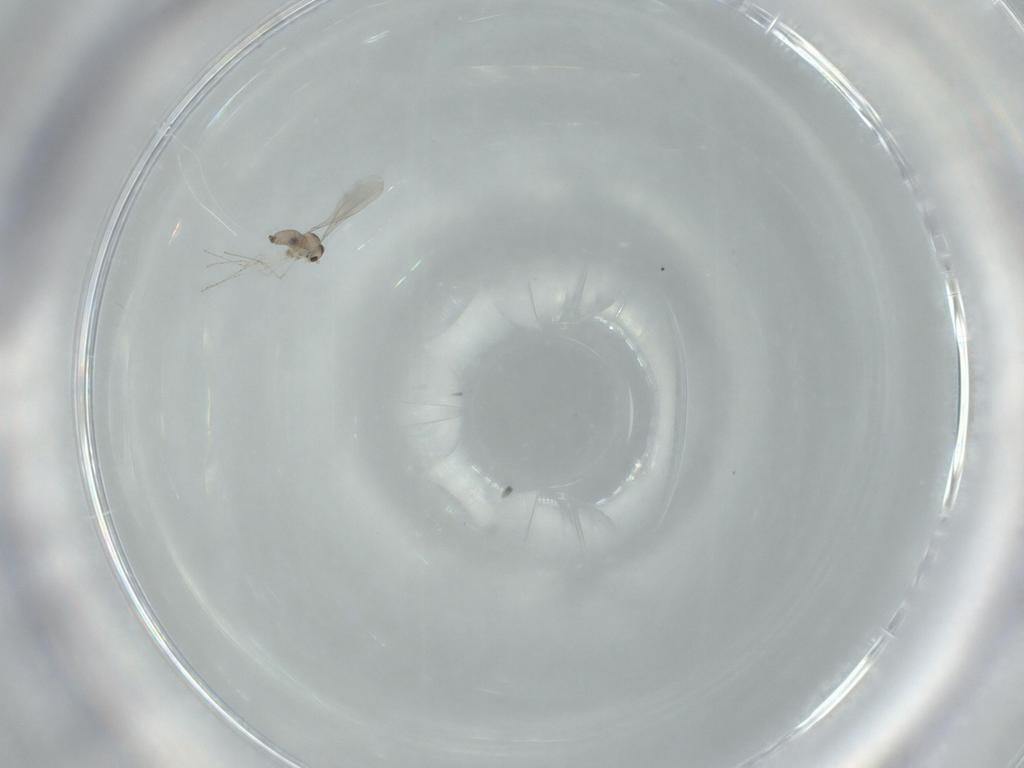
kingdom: Animalia
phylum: Arthropoda
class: Insecta
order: Diptera
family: Cecidomyiidae
